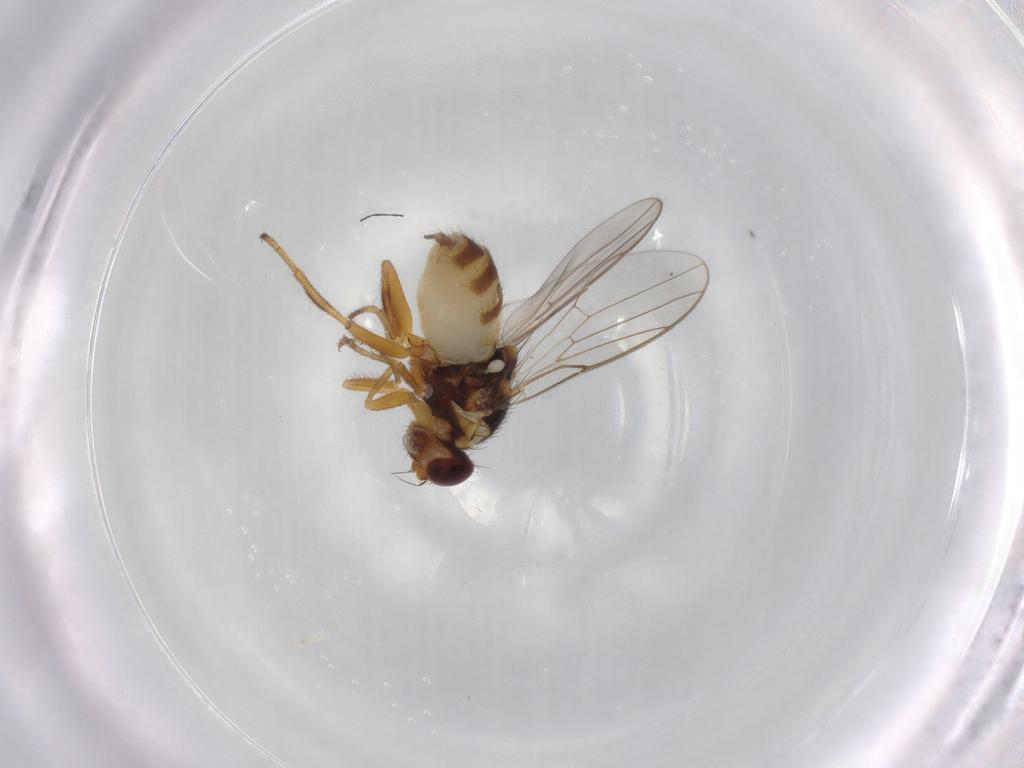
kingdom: Animalia
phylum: Arthropoda
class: Insecta
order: Diptera
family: Chloropidae
